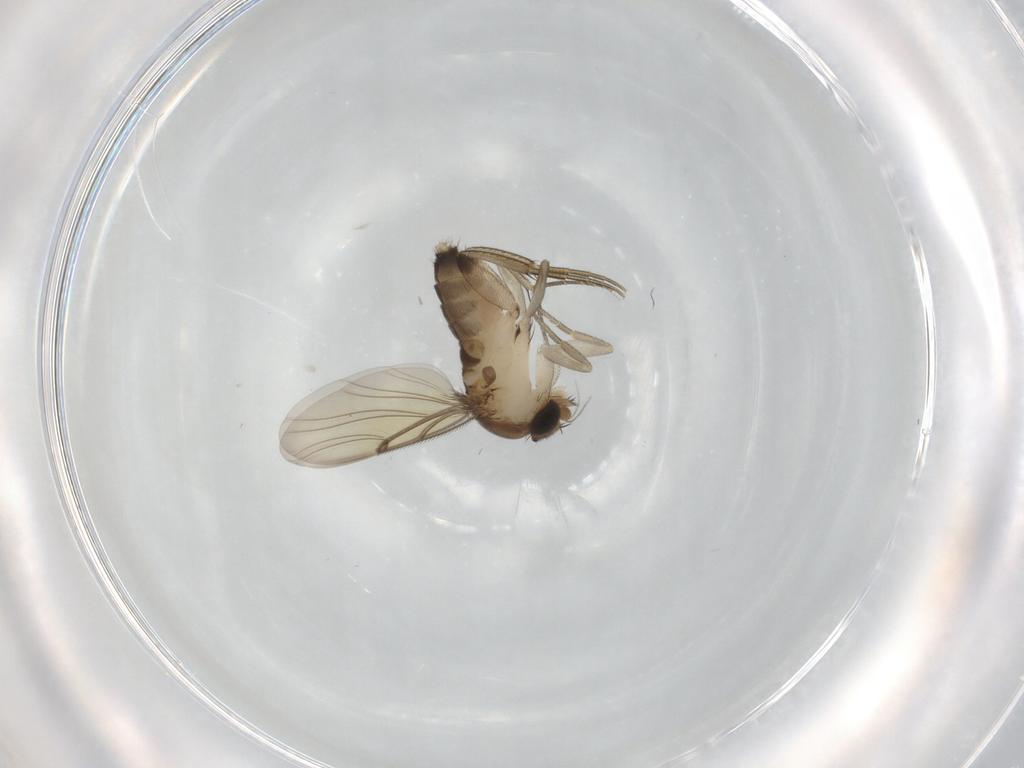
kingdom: Animalia
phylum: Arthropoda
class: Insecta
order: Diptera
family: Phoridae
